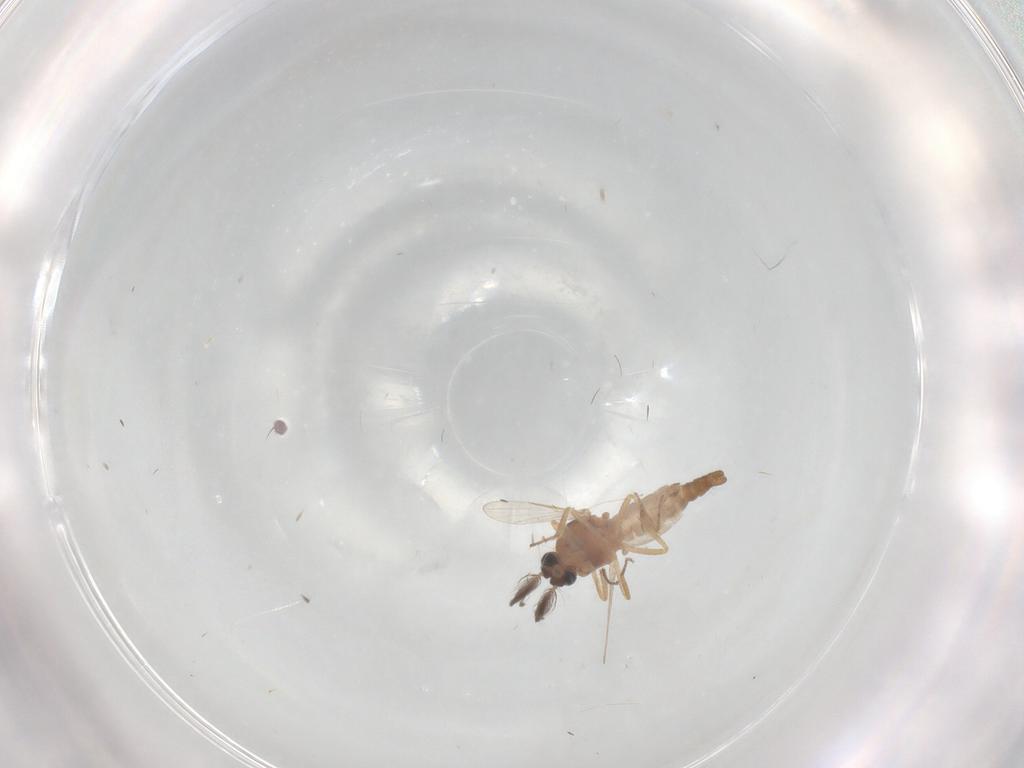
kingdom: Animalia
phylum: Arthropoda
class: Insecta
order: Diptera
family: Ceratopogonidae
